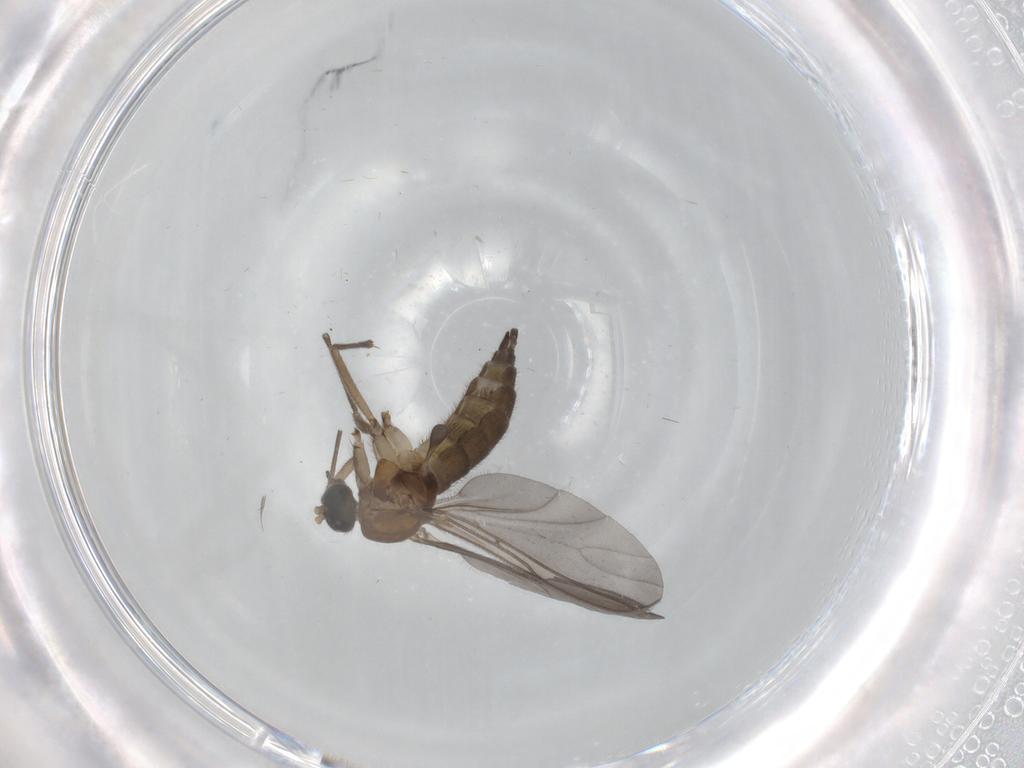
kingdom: Animalia
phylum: Arthropoda
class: Insecta
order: Diptera
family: Sciaridae
